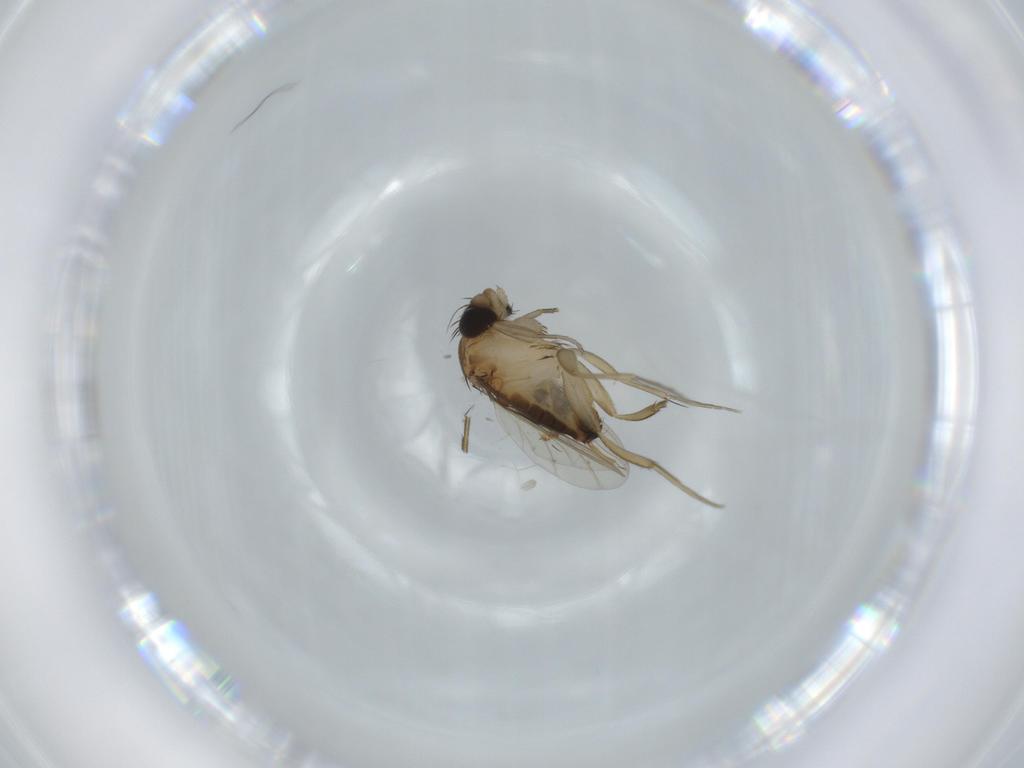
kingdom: Animalia
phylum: Arthropoda
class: Insecta
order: Diptera
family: Phoridae
